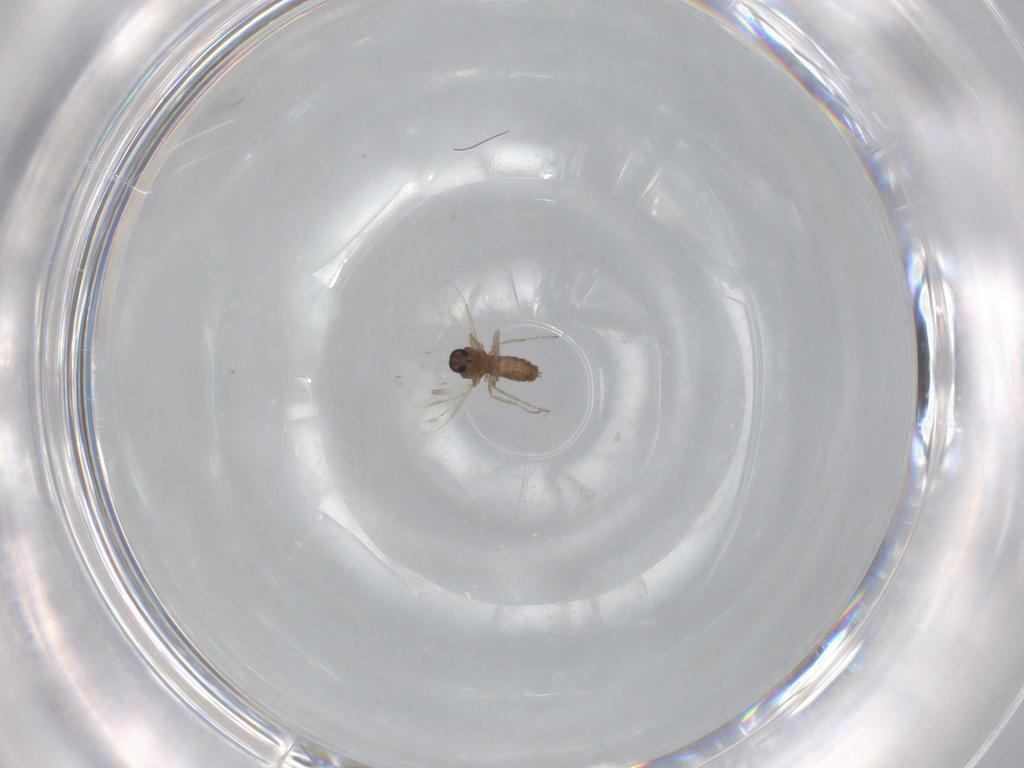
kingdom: Animalia
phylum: Arthropoda
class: Insecta
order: Diptera
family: Ceratopogonidae
